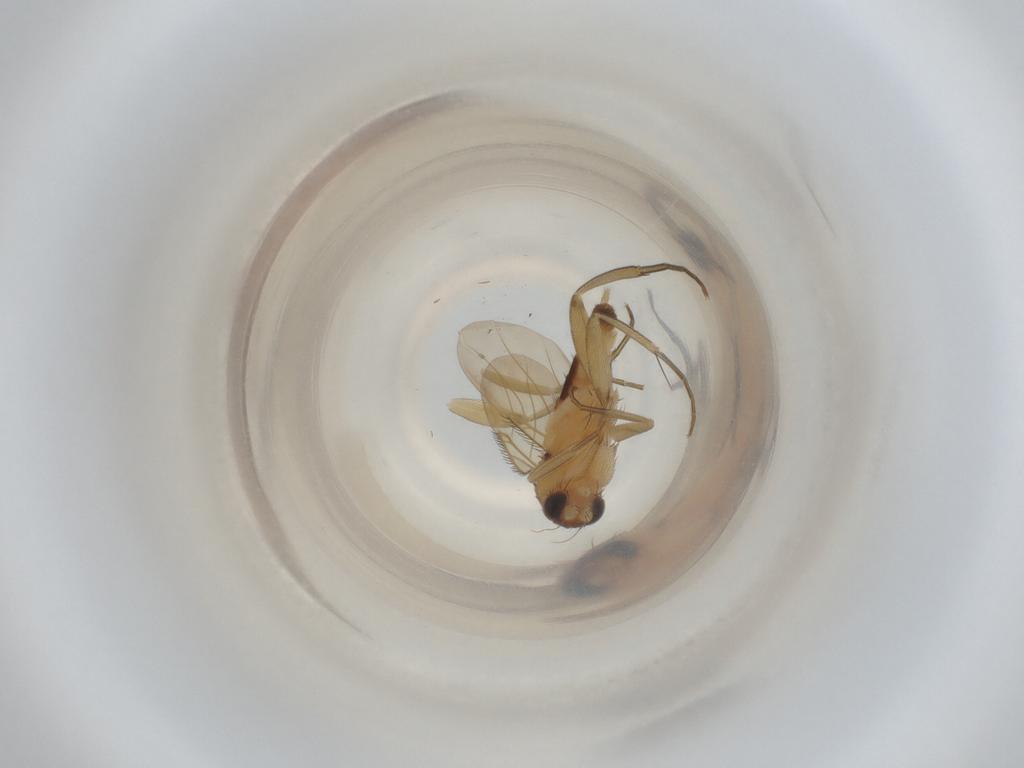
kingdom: Animalia
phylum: Arthropoda
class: Insecta
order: Diptera
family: Phoridae
